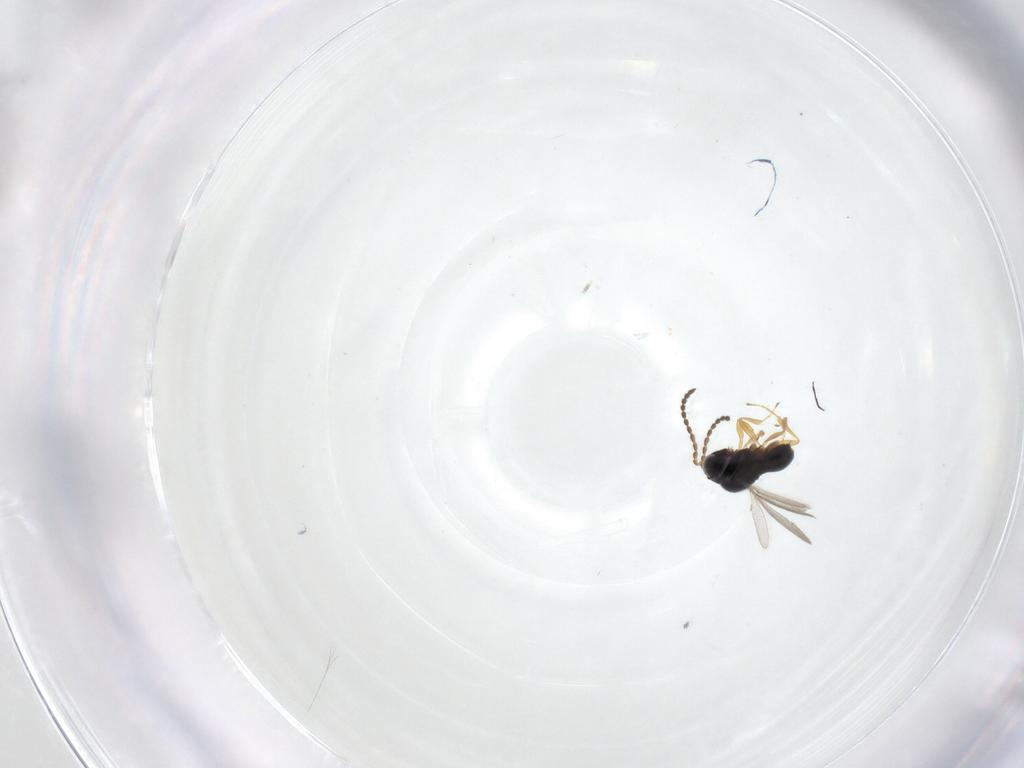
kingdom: Animalia
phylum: Arthropoda
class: Insecta
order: Hymenoptera
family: Scelionidae
